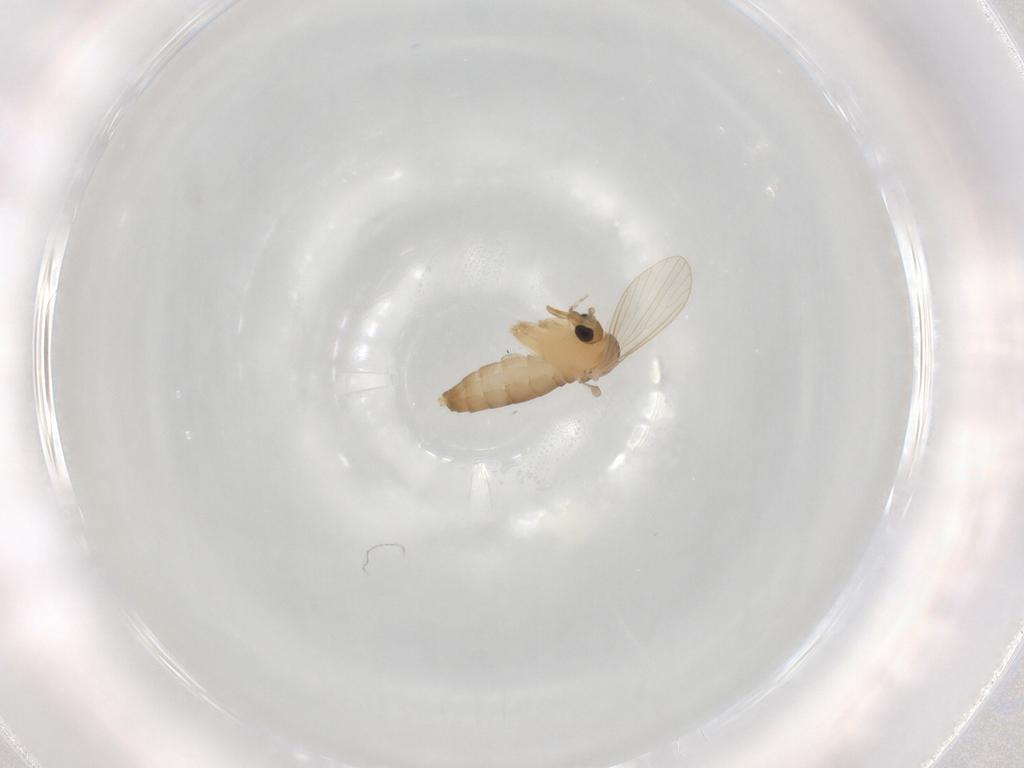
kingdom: Animalia
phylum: Arthropoda
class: Insecta
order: Diptera
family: Psychodidae
